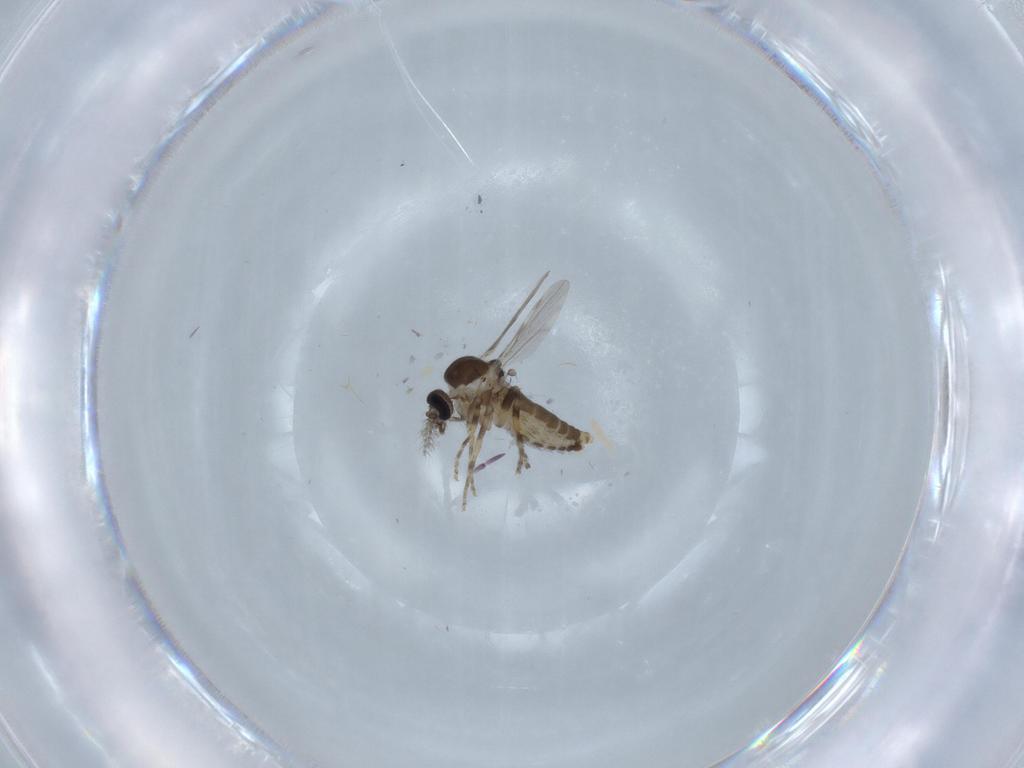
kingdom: Animalia
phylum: Arthropoda
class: Insecta
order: Diptera
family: Ceratopogonidae
